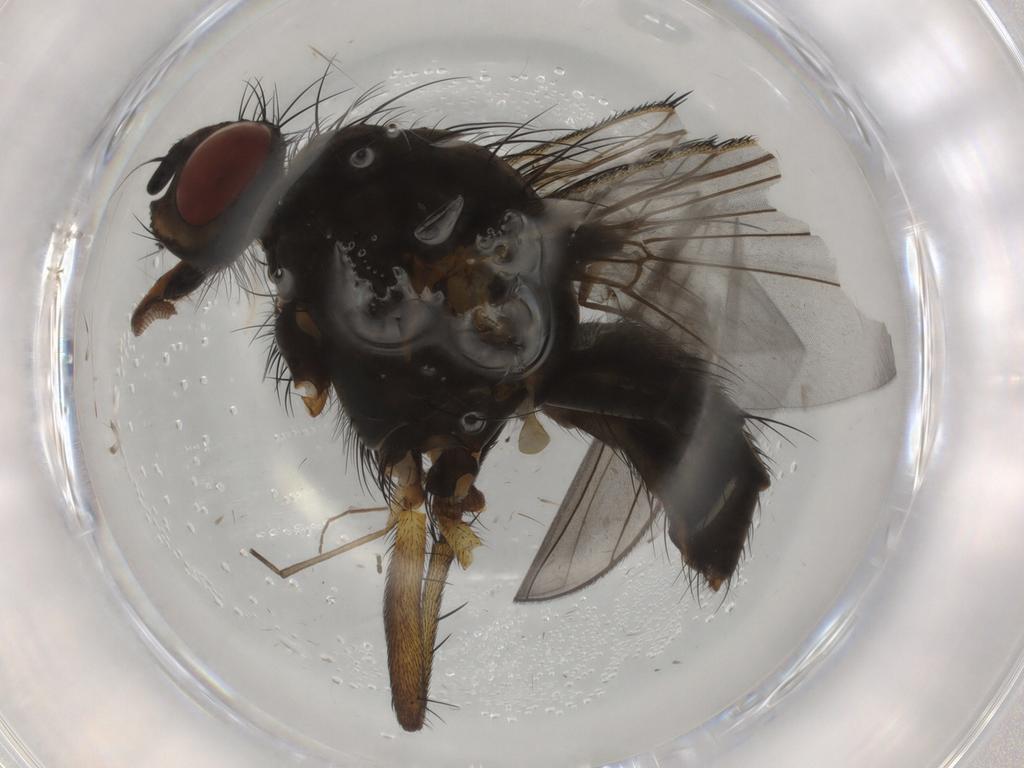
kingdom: Animalia
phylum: Arthropoda
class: Insecta
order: Diptera
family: Anthomyiidae
